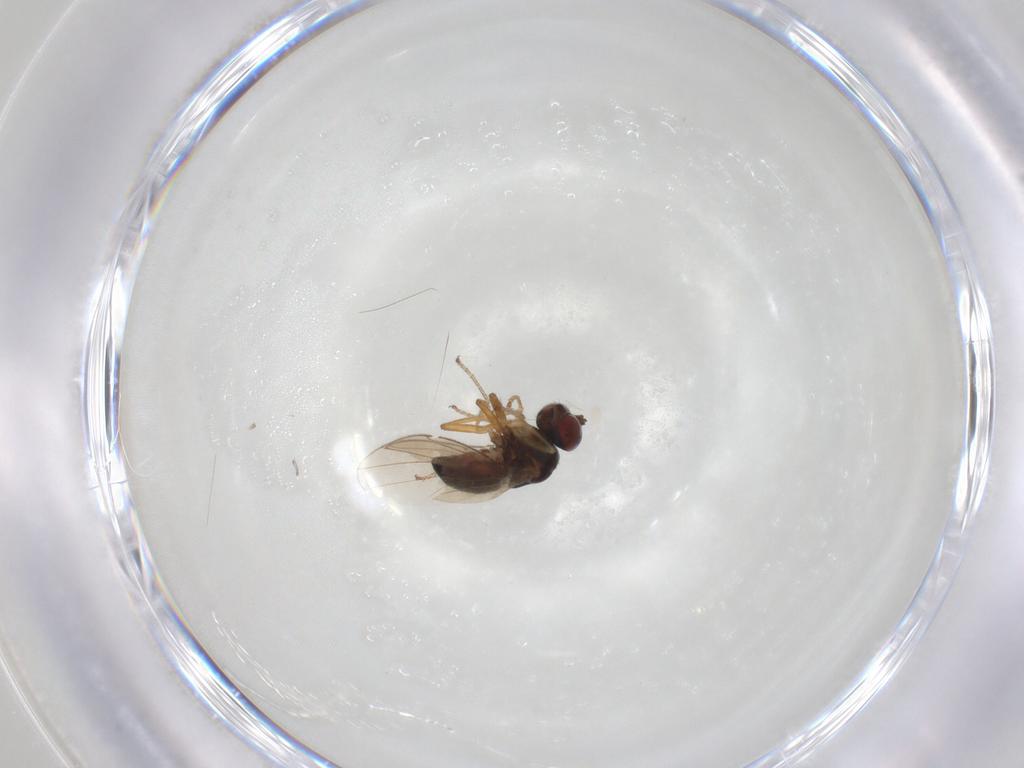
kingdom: Animalia
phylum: Arthropoda
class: Insecta
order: Diptera
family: Ephydridae
